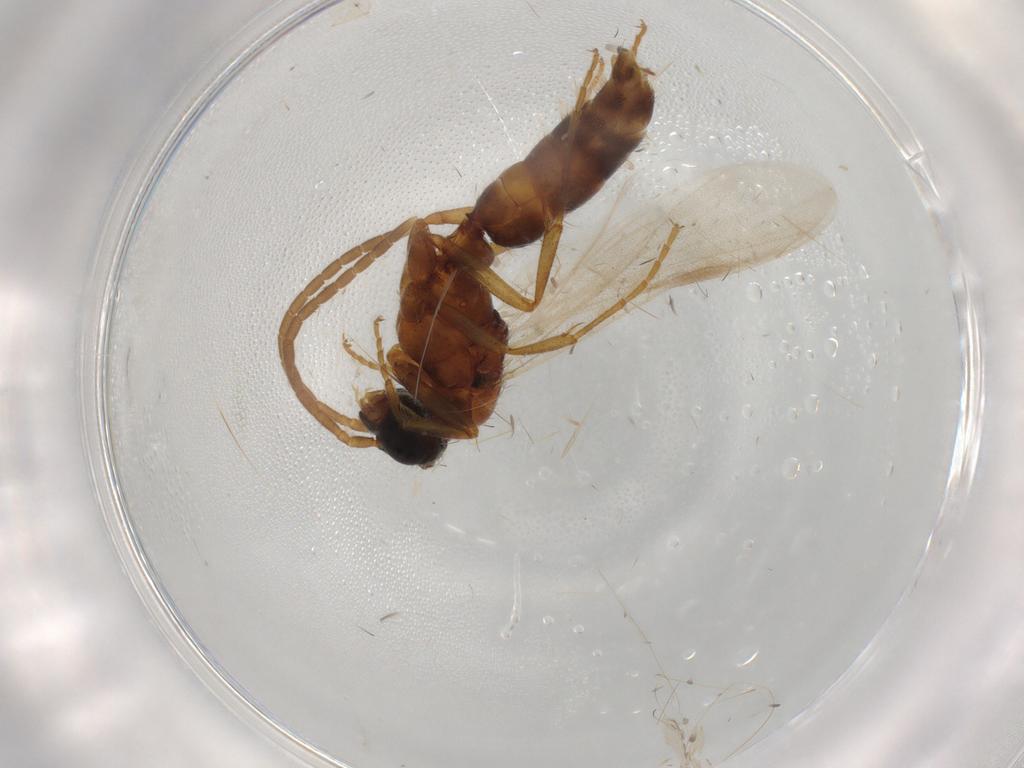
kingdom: Animalia
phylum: Arthropoda
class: Insecta
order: Hymenoptera
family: Formicidae
